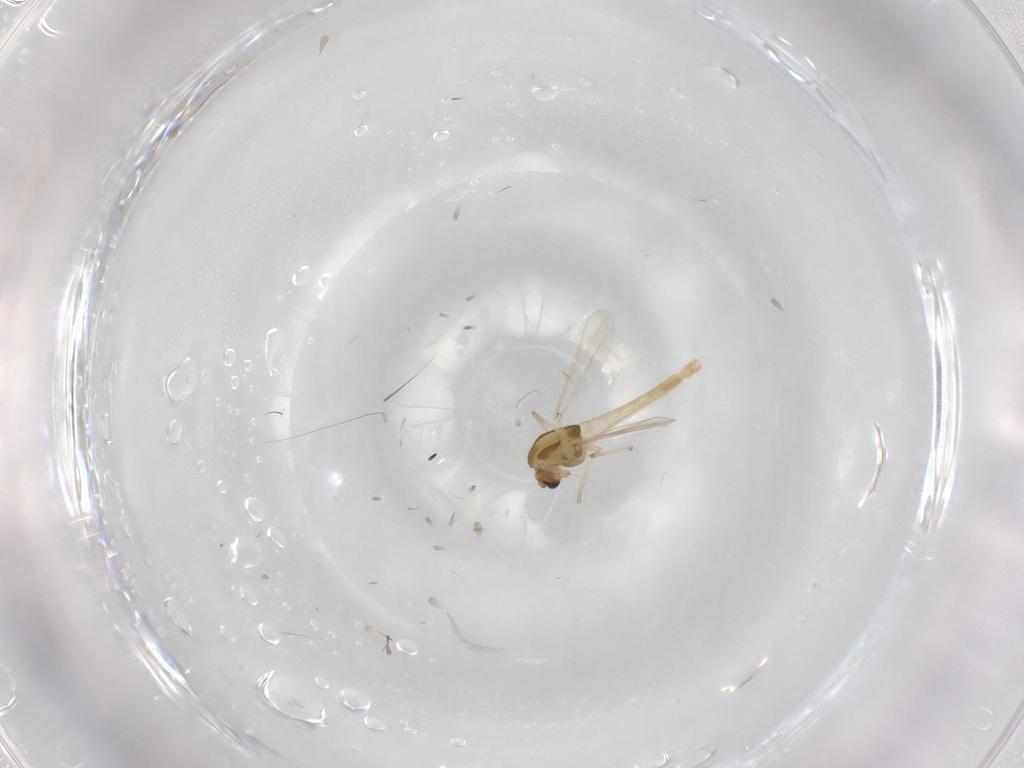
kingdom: Animalia
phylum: Arthropoda
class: Insecta
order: Diptera
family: Chironomidae
